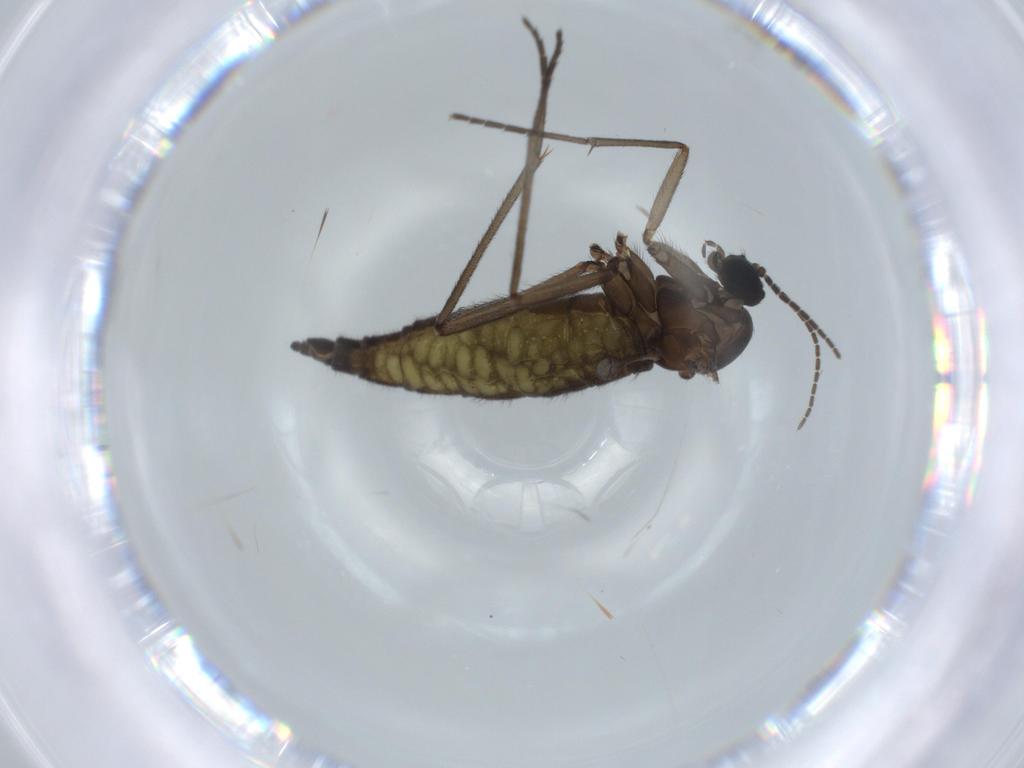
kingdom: Animalia
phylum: Arthropoda
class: Insecta
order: Diptera
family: Sciaridae
